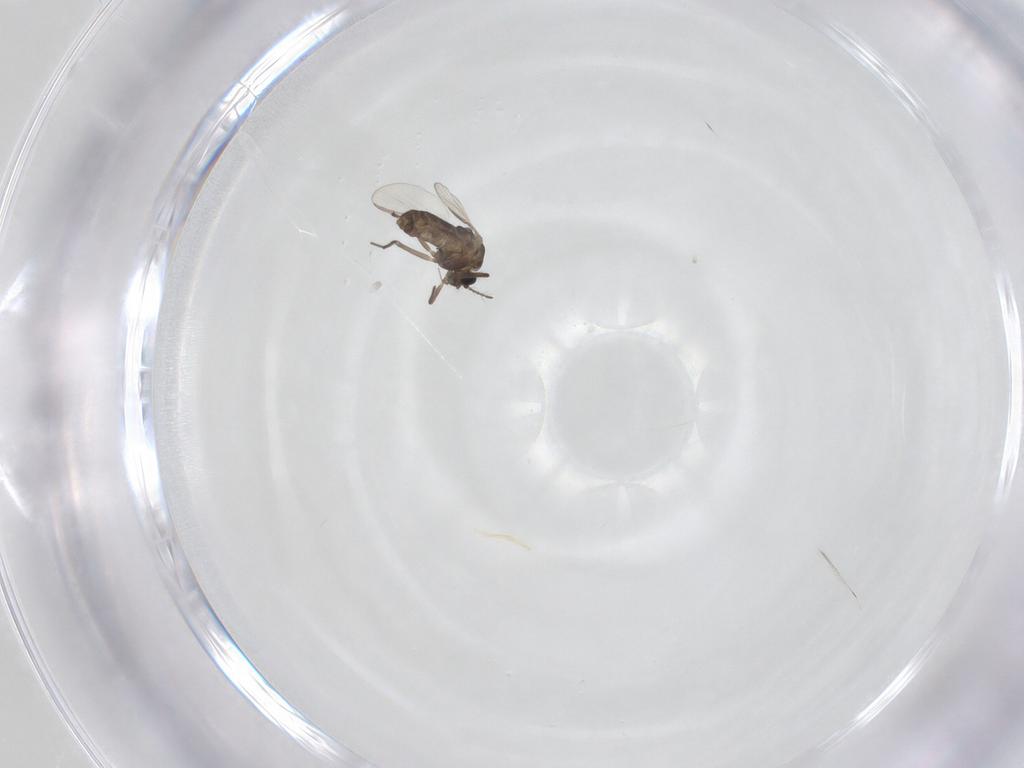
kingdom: Animalia
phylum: Arthropoda
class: Insecta
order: Diptera
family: Chironomidae
